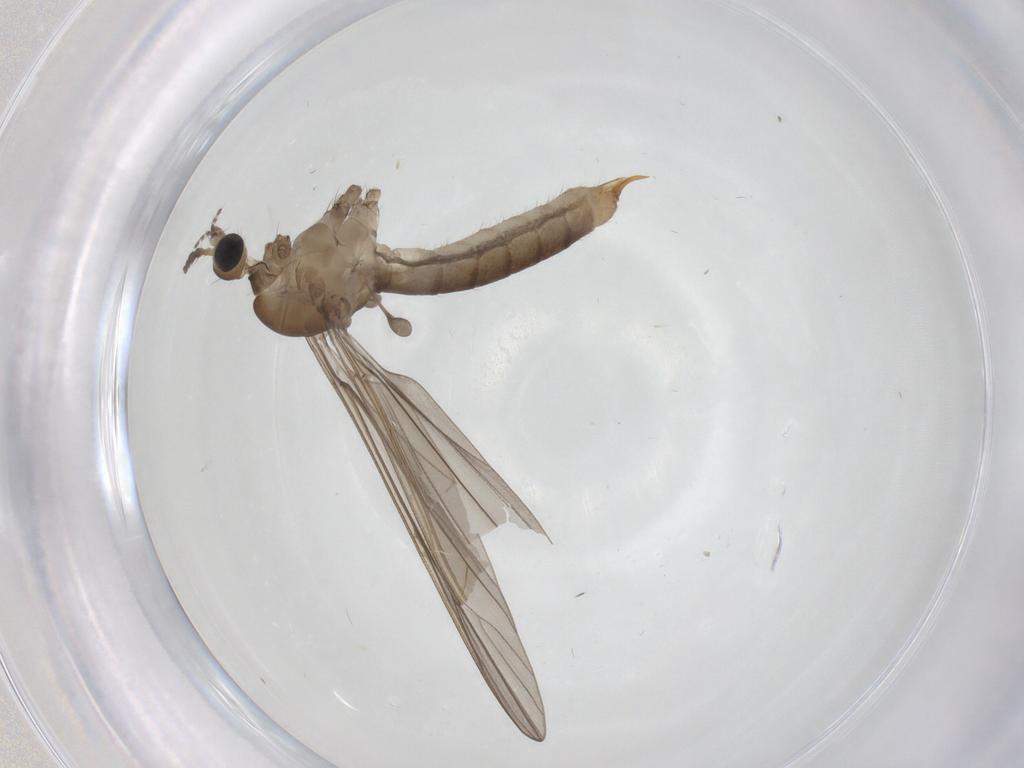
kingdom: Animalia
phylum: Arthropoda
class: Insecta
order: Diptera
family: Limoniidae
